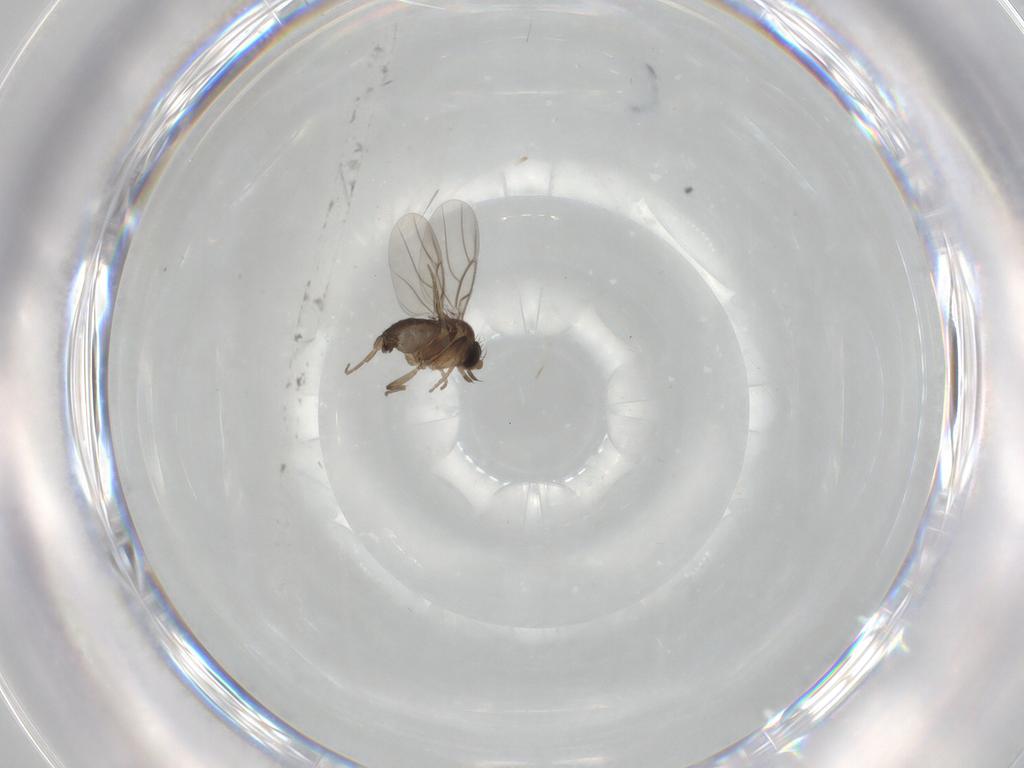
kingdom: Animalia
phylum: Arthropoda
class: Insecta
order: Diptera
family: Phoridae
